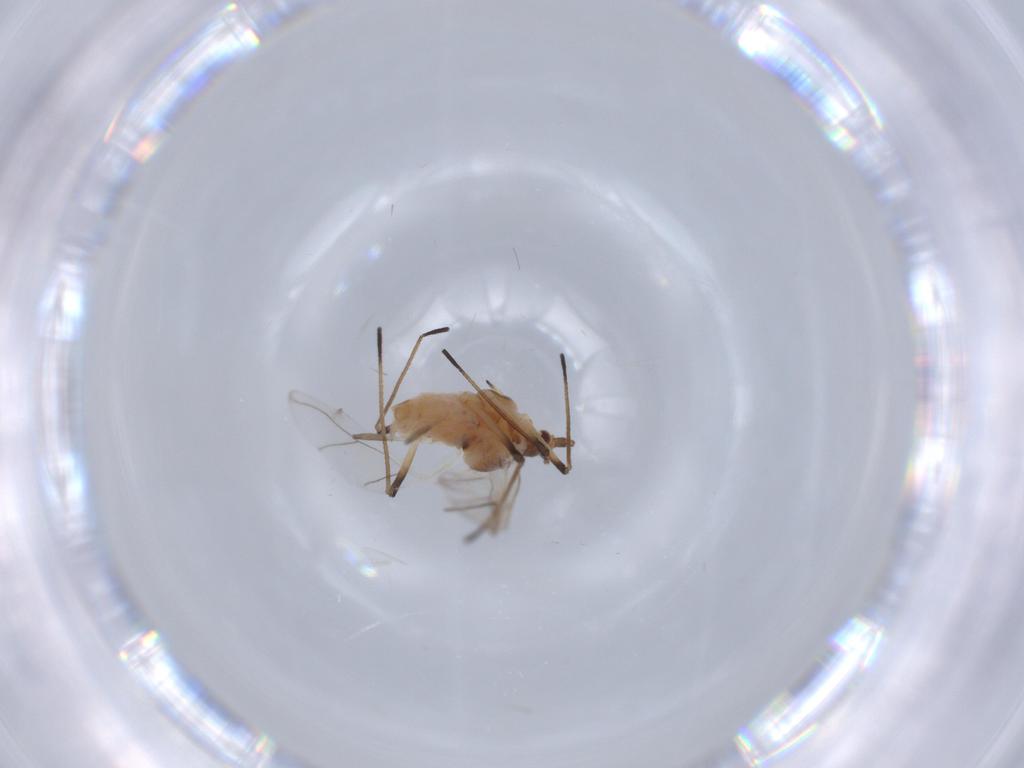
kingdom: Animalia
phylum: Arthropoda
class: Insecta
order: Hemiptera
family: Aphididae
